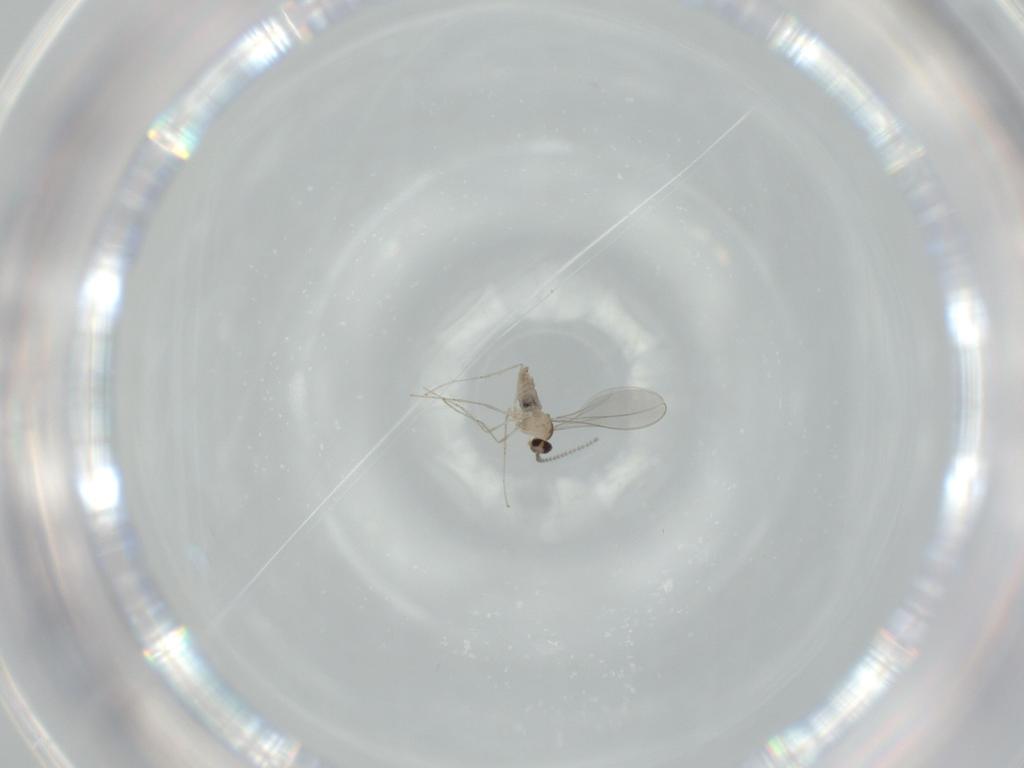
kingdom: Animalia
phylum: Arthropoda
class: Insecta
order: Diptera
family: Cecidomyiidae
